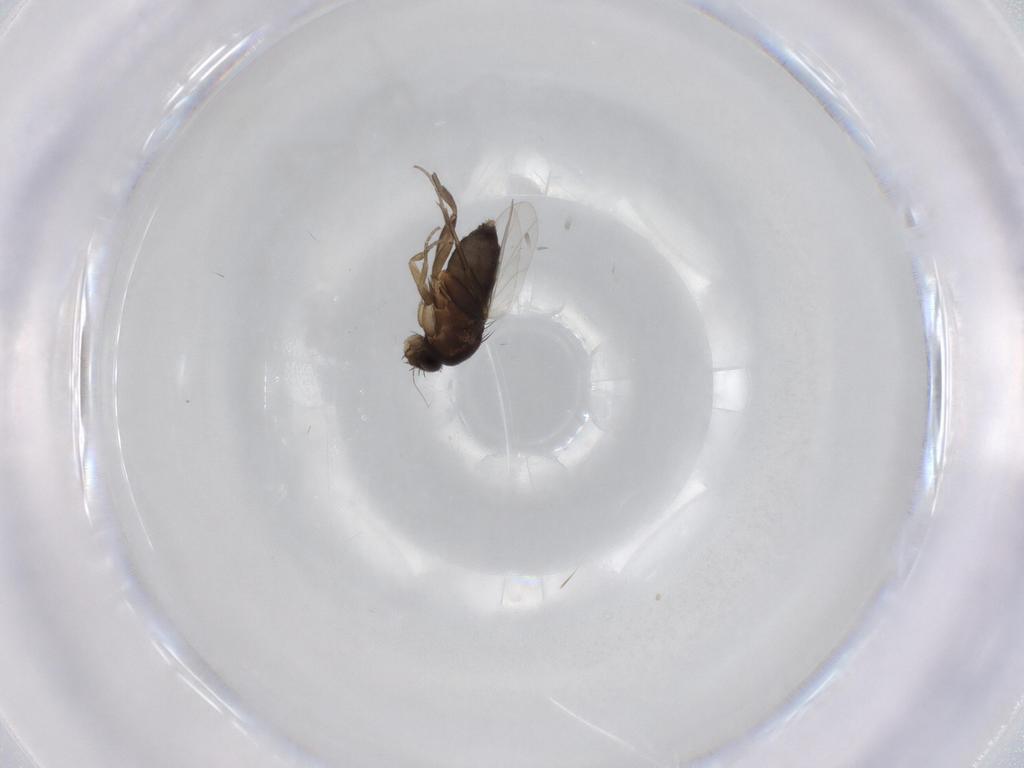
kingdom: Animalia
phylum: Arthropoda
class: Insecta
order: Diptera
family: Phoridae
